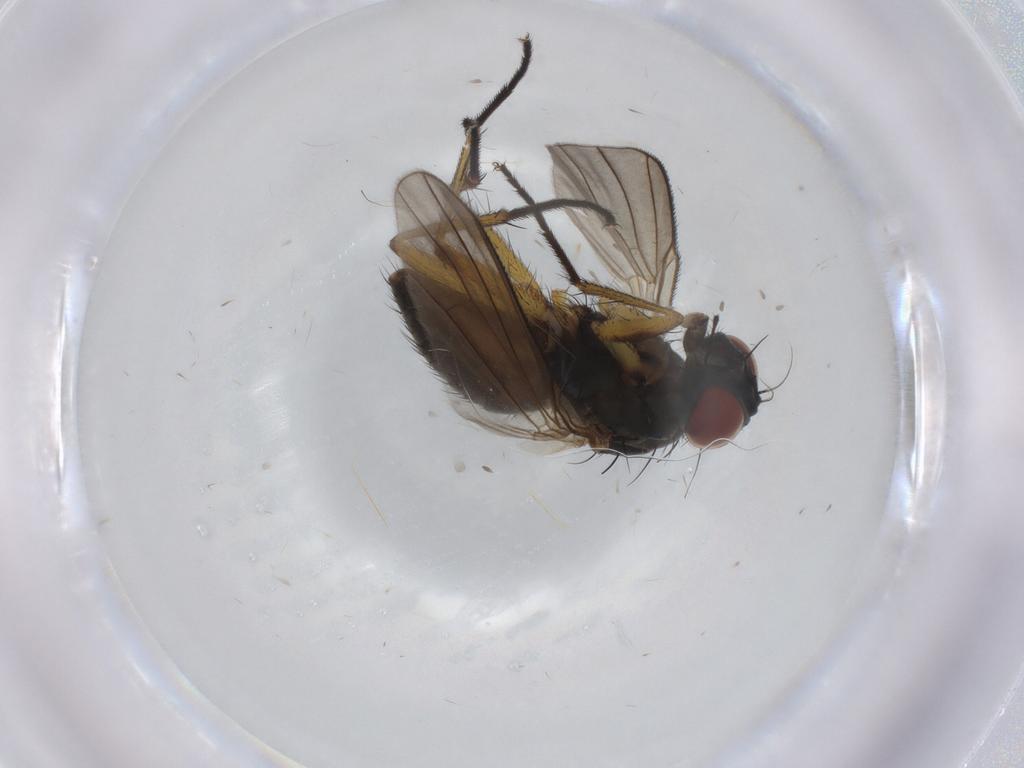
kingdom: Animalia
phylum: Arthropoda
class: Insecta
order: Diptera
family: Muscidae
